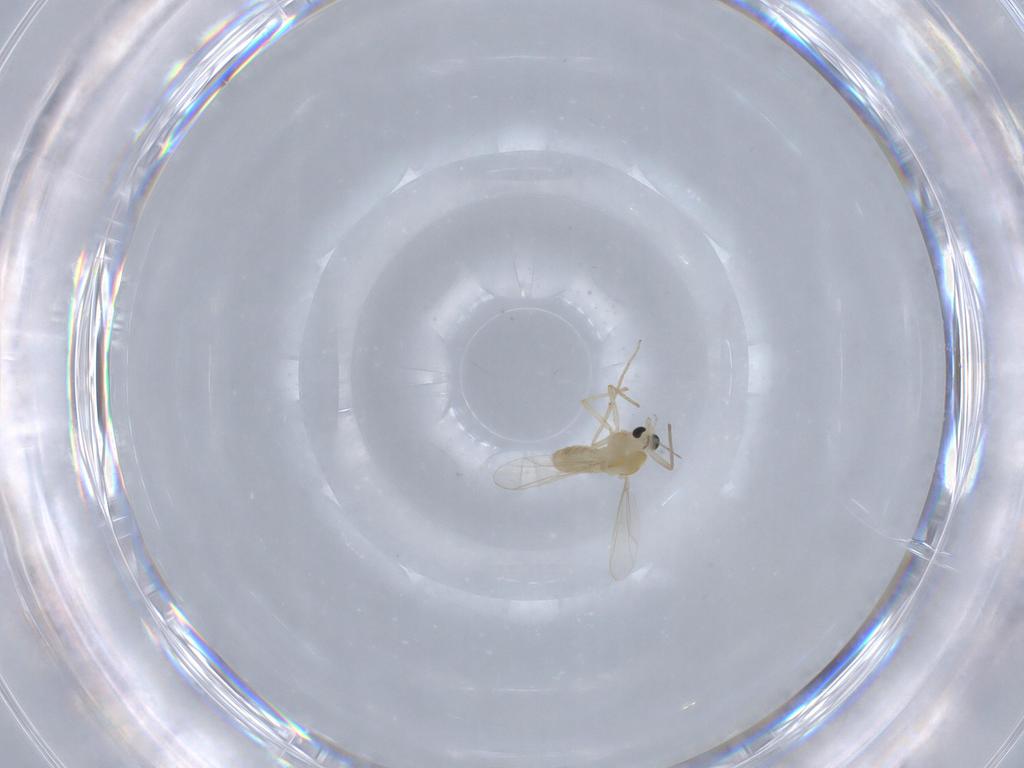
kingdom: Animalia
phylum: Arthropoda
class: Insecta
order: Diptera
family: Chironomidae
